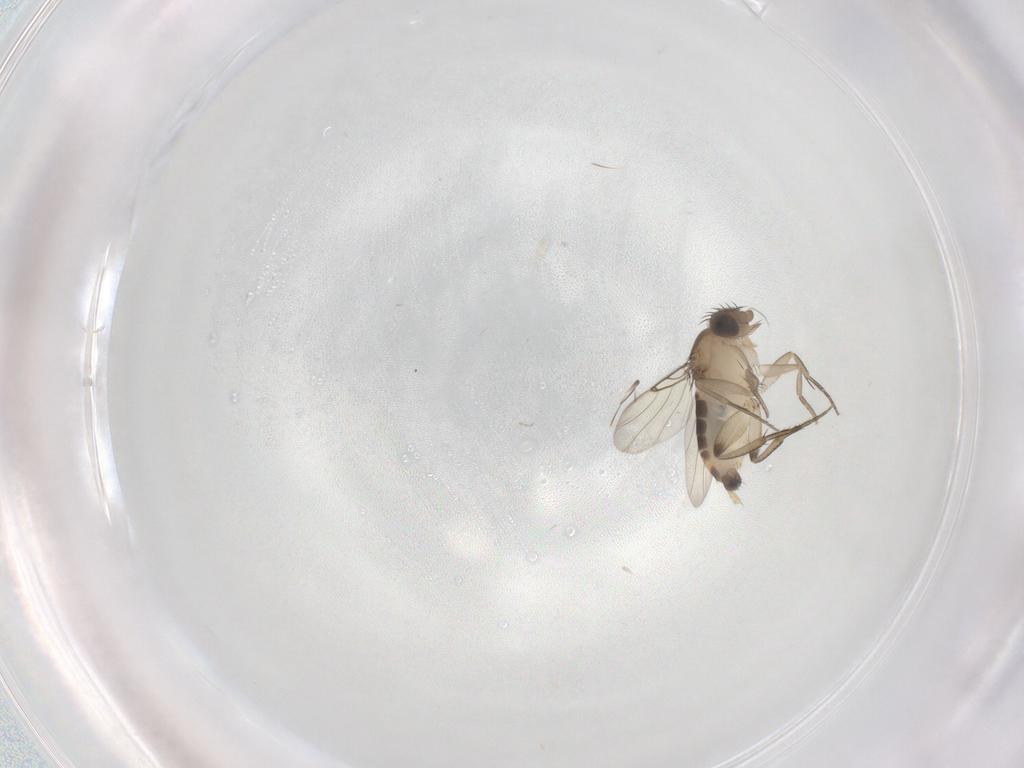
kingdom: Animalia
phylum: Arthropoda
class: Insecta
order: Diptera
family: Phoridae
